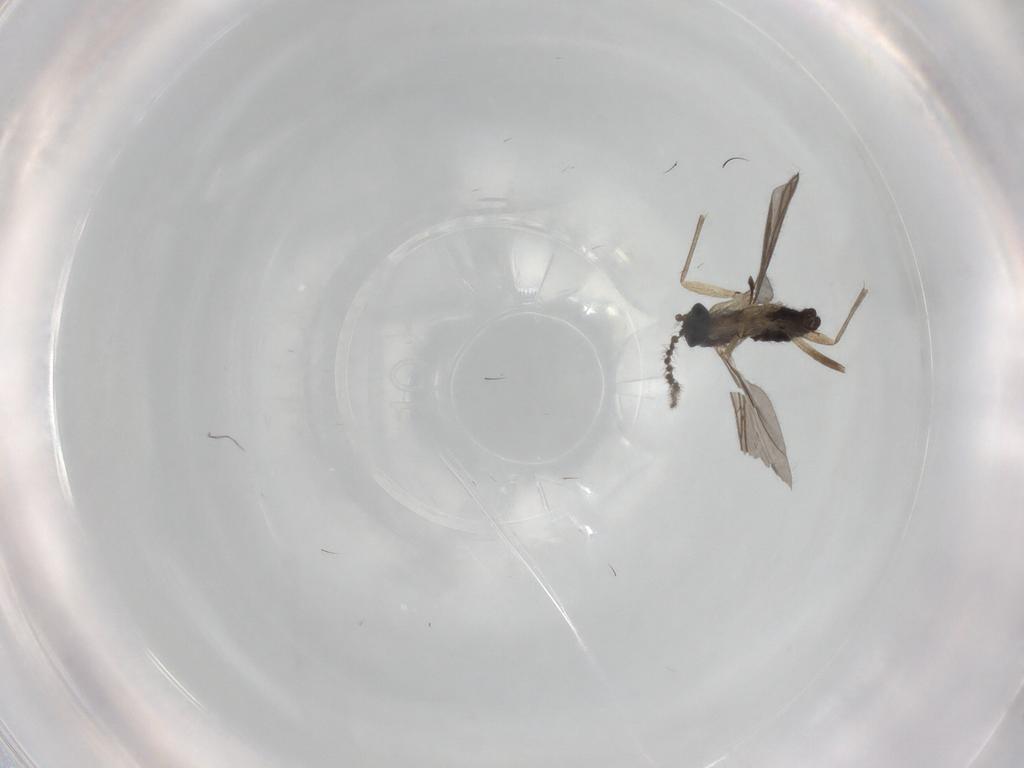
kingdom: Animalia
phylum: Arthropoda
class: Insecta
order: Diptera
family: Sciaridae
